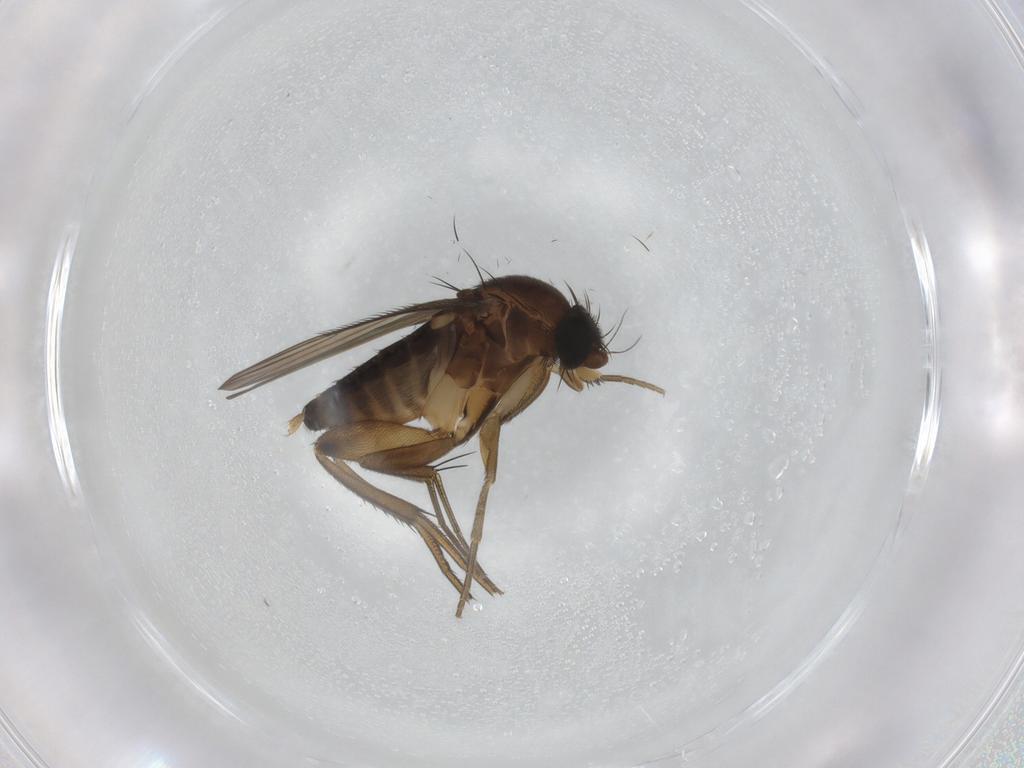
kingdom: Animalia
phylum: Arthropoda
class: Insecta
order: Diptera
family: Phoridae
